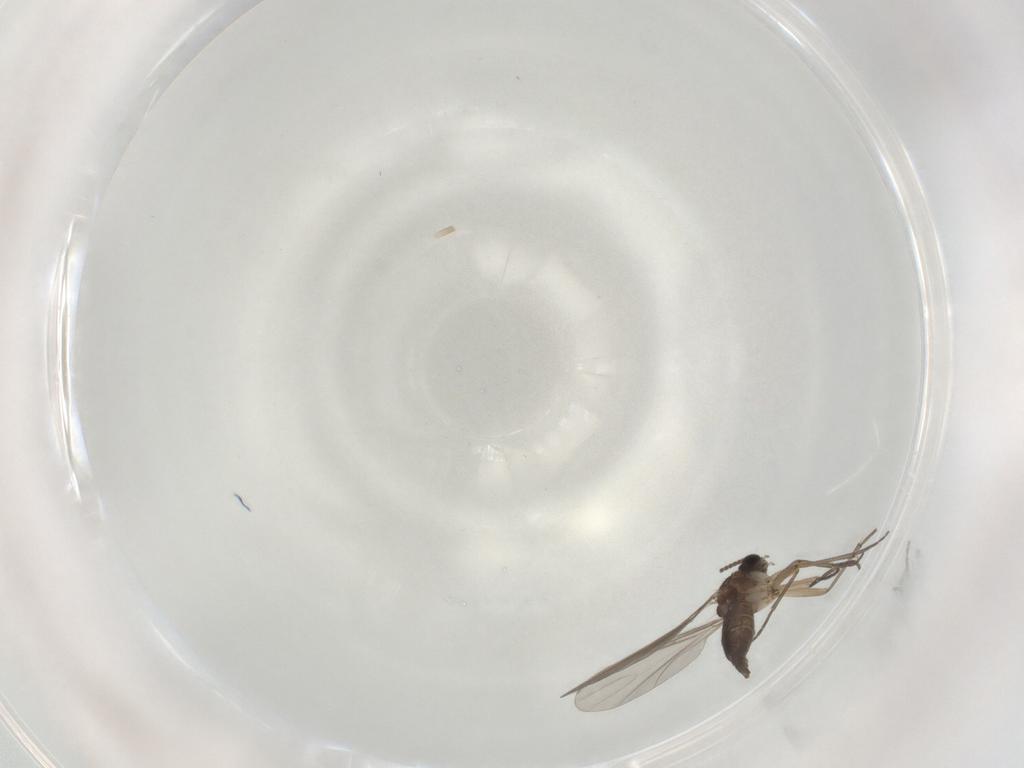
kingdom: Animalia
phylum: Arthropoda
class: Insecta
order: Diptera
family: Sciaridae
